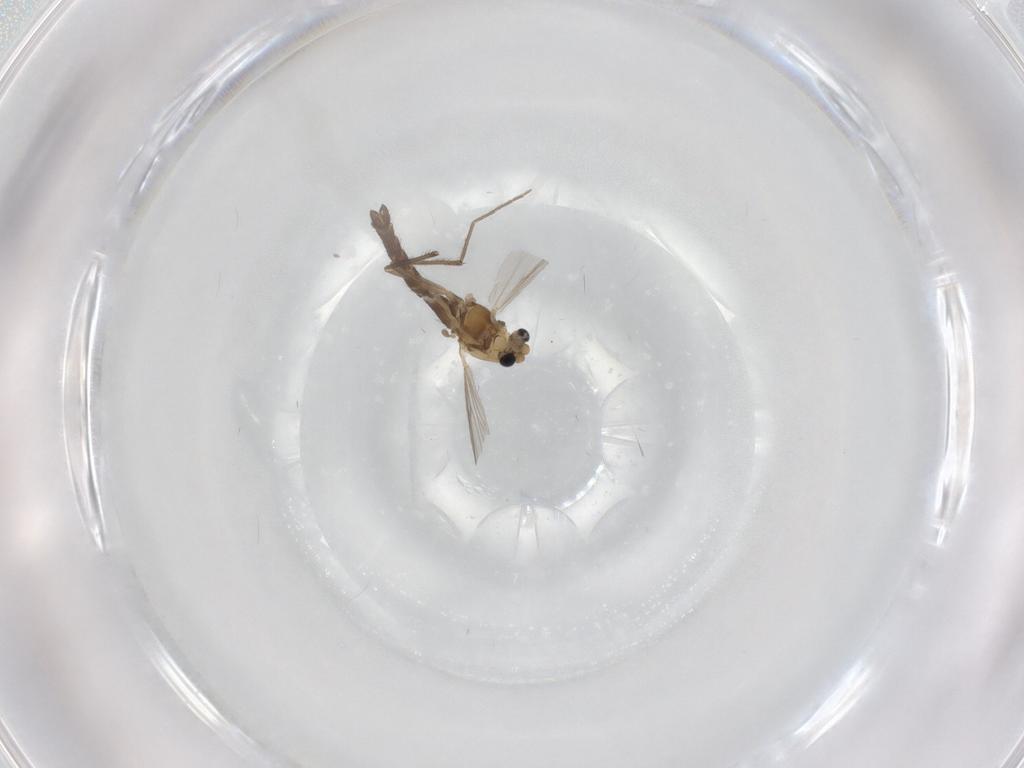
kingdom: Animalia
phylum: Arthropoda
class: Insecta
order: Diptera
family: Chironomidae
